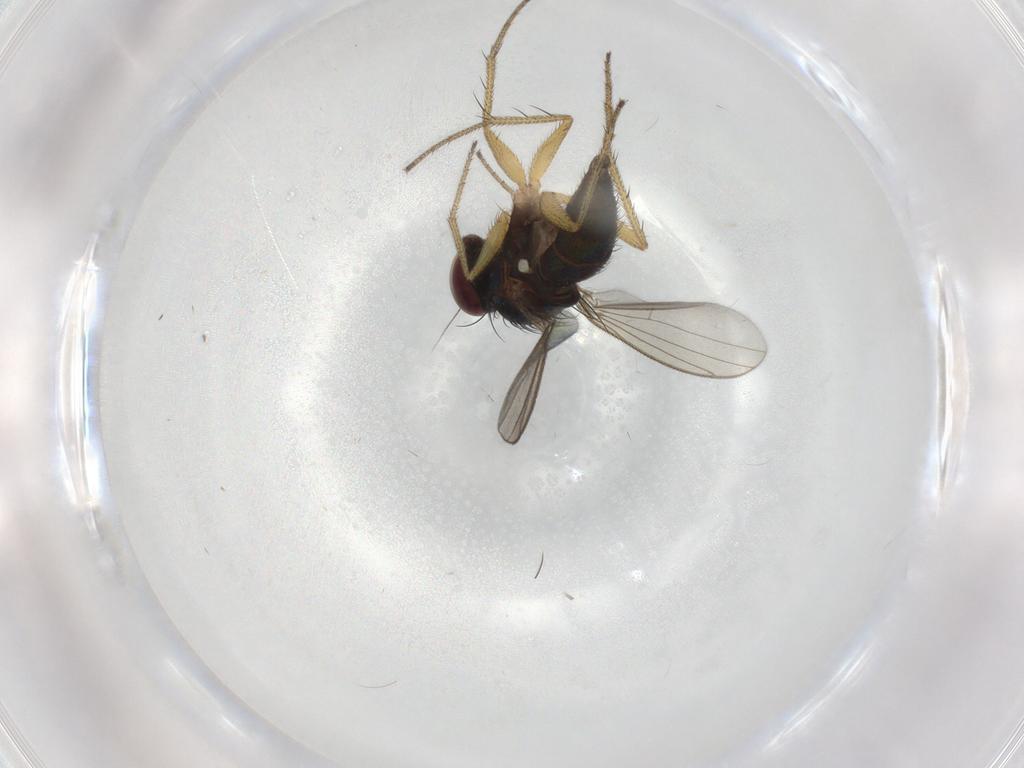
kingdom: Animalia
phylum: Arthropoda
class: Insecta
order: Diptera
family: Dolichopodidae
